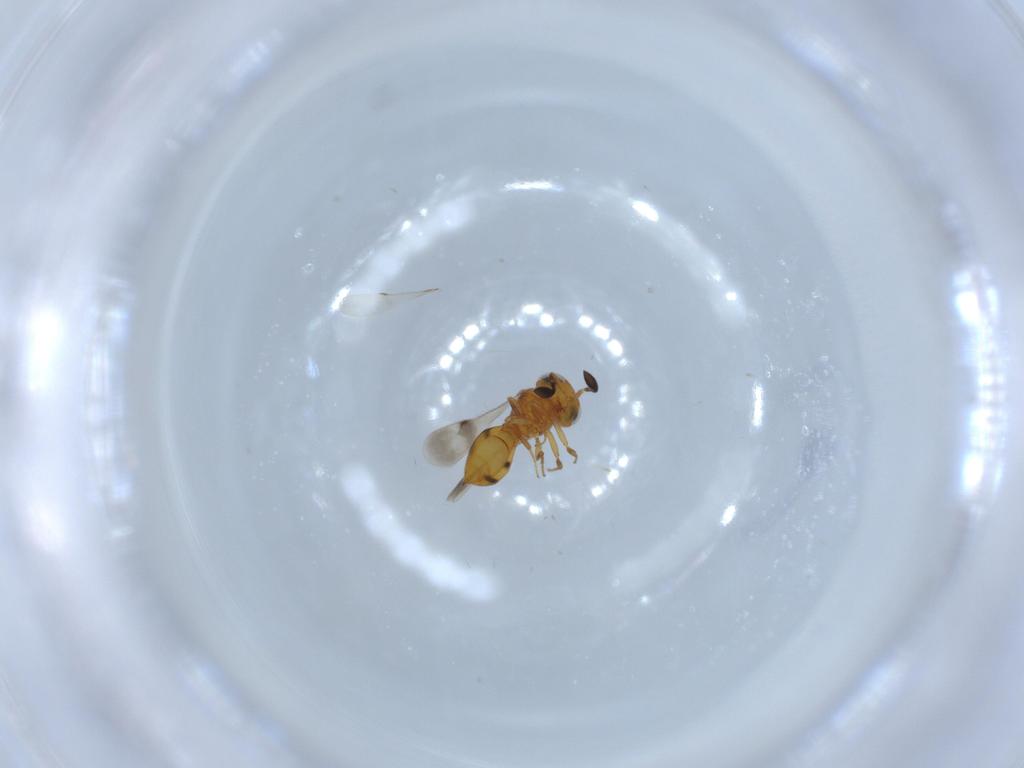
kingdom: Animalia
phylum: Arthropoda
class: Insecta
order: Hymenoptera
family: Scelionidae
